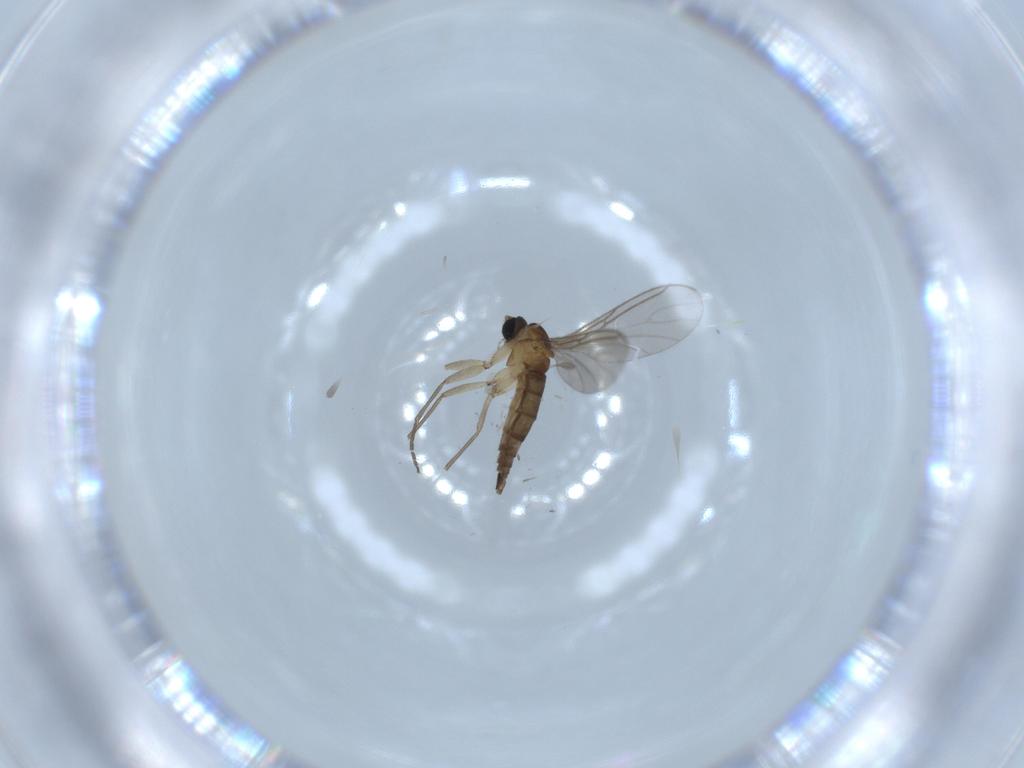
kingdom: Animalia
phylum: Arthropoda
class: Insecta
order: Diptera
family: Sciaridae
